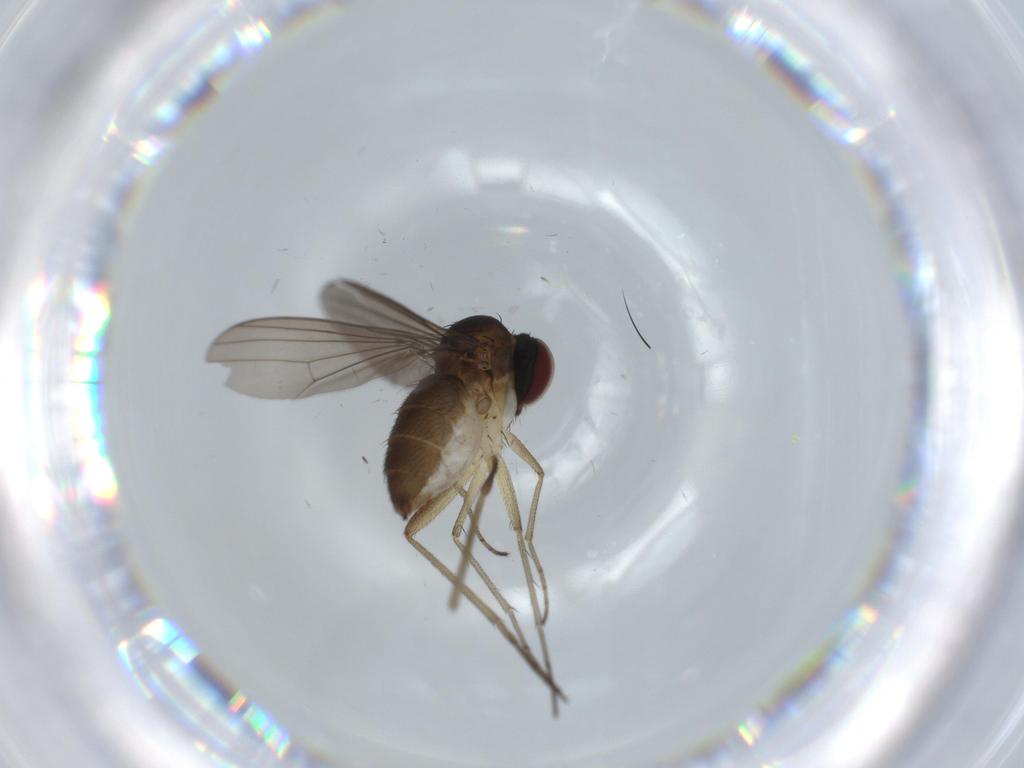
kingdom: Animalia
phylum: Arthropoda
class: Insecta
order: Diptera
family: Dolichopodidae
